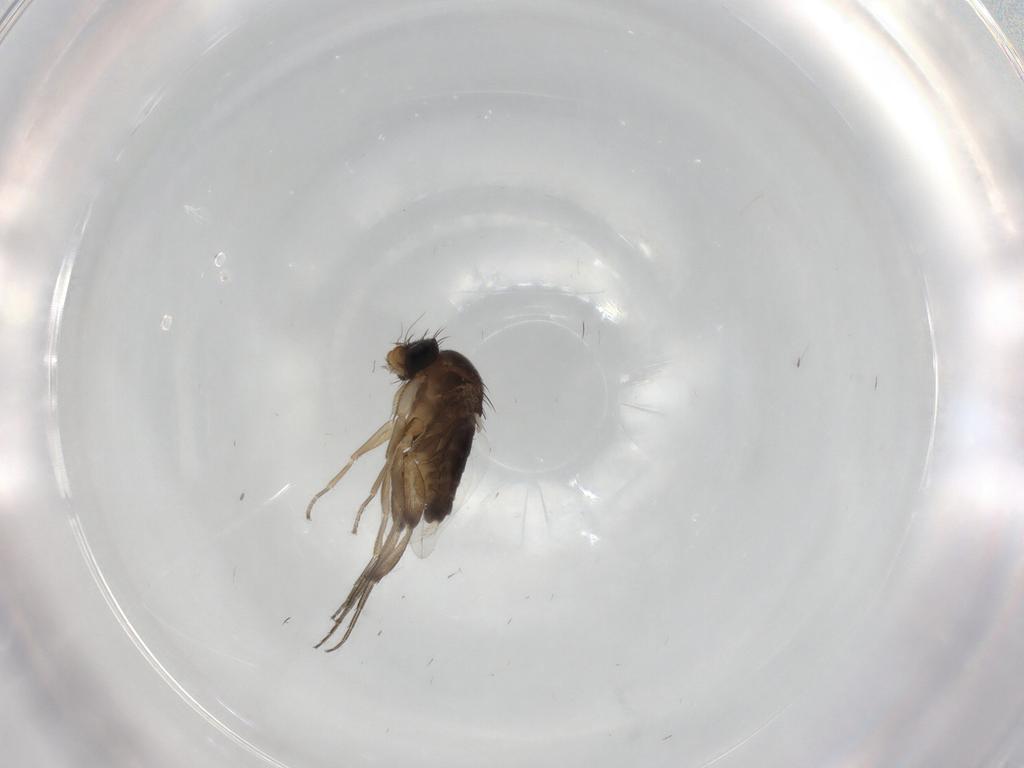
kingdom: Animalia
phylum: Arthropoda
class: Insecta
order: Diptera
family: Phoridae
